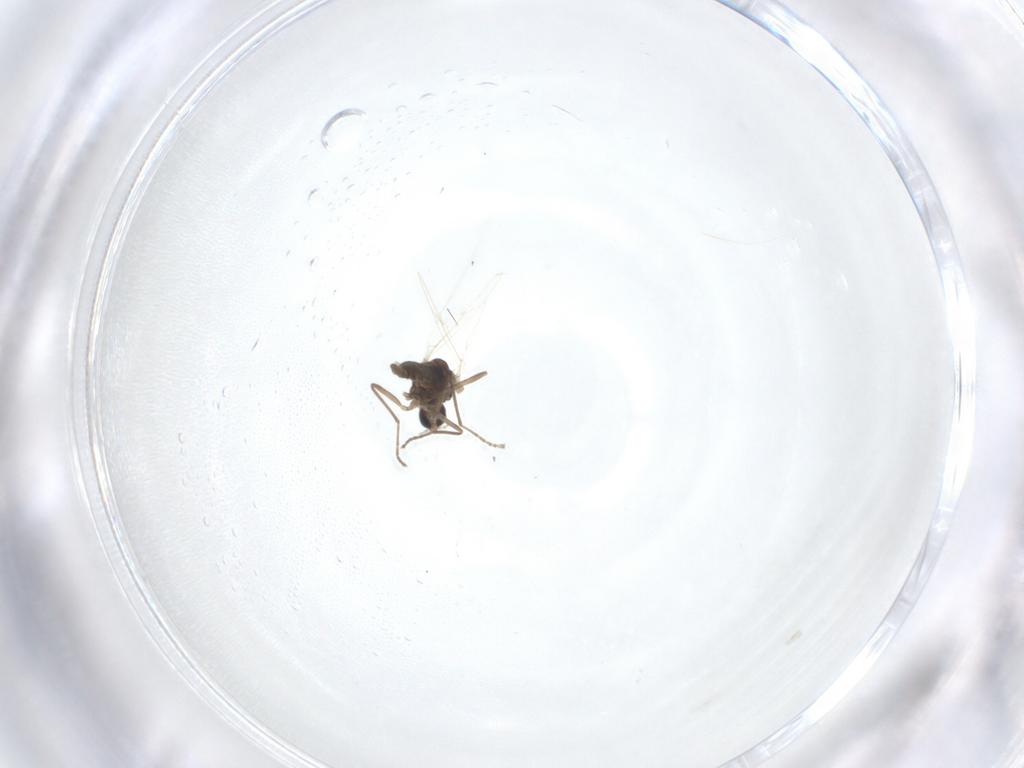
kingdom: Animalia
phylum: Arthropoda
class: Insecta
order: Diptera
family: Cecidomyiidae
